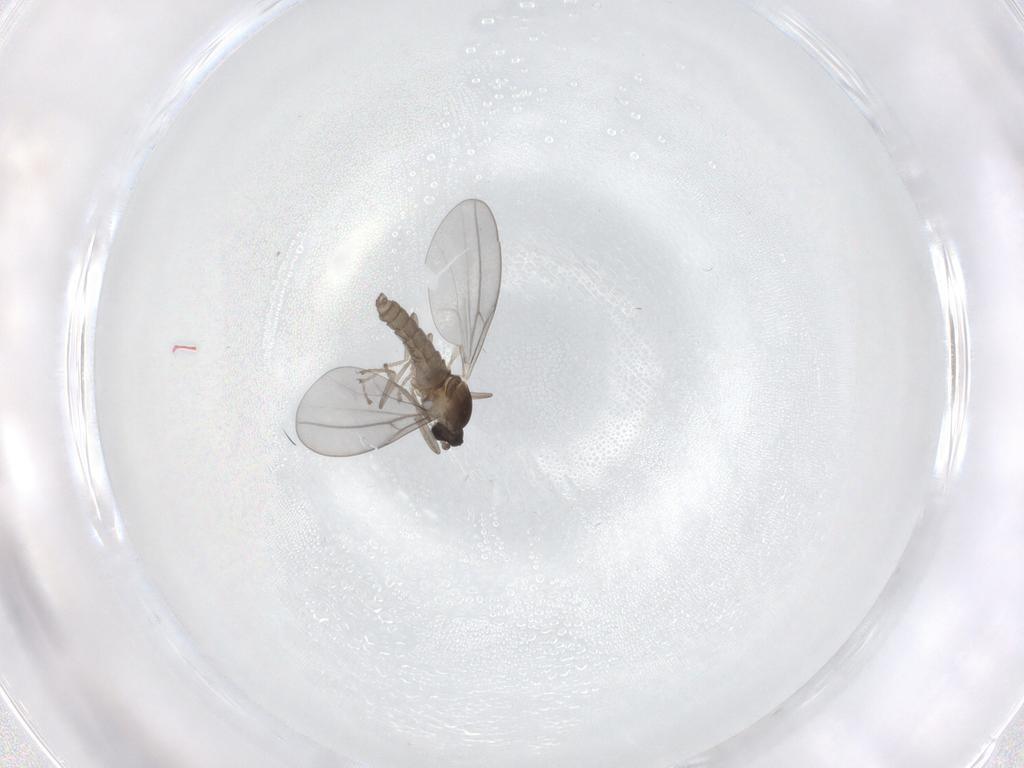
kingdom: Animalia
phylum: Arthropoda
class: Insecta
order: Diptera
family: Cecidomyiidae
